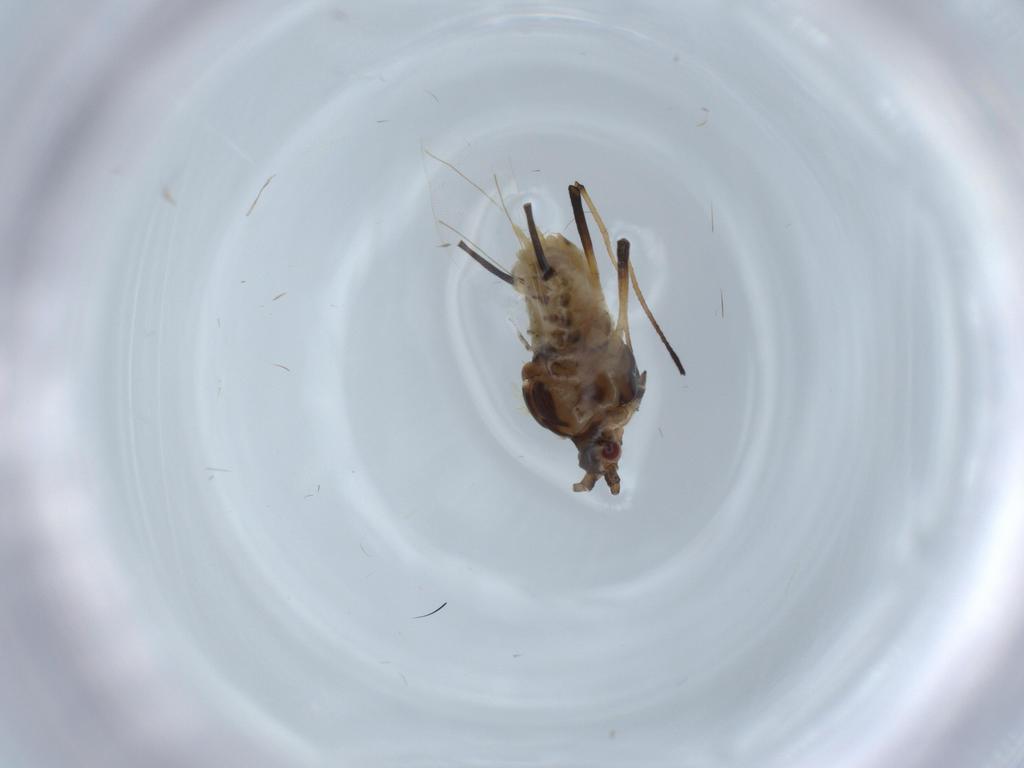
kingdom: Animalia
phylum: Arthropoda
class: Insecta
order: Hemiptera
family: Aphididae
